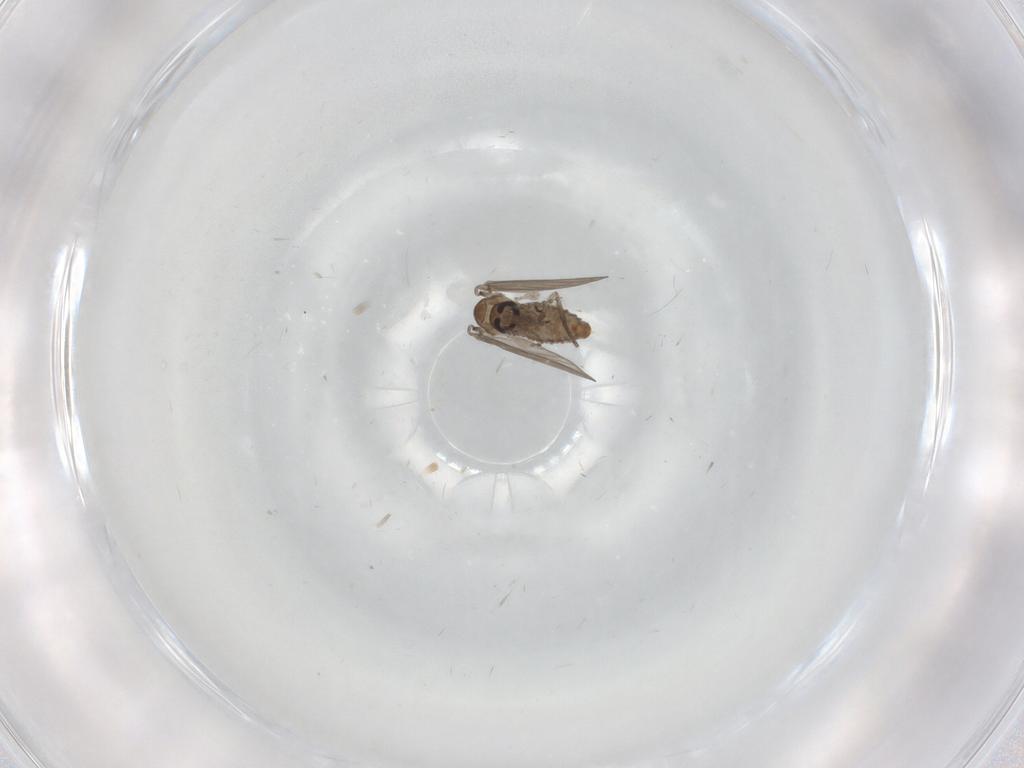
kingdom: Animalia
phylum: Arthropoda
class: Insecta
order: Diptera
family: Psychodidae
